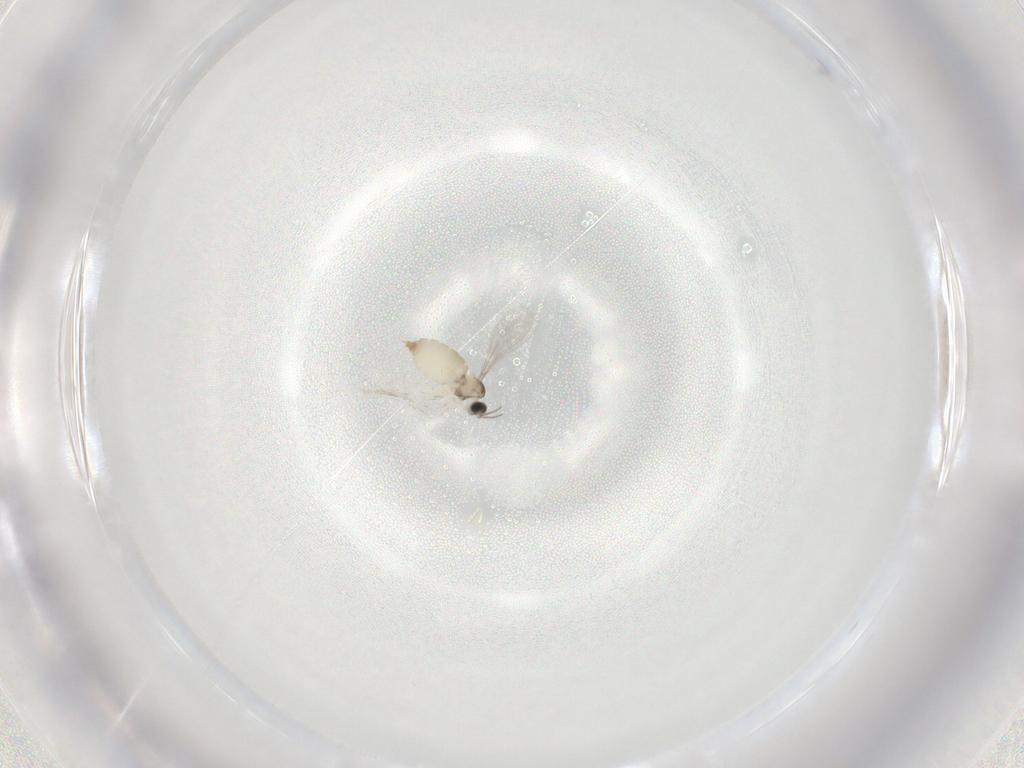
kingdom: Animalia
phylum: Arthropoda
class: Insecta
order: Diptera
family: Cecidomyiidae
